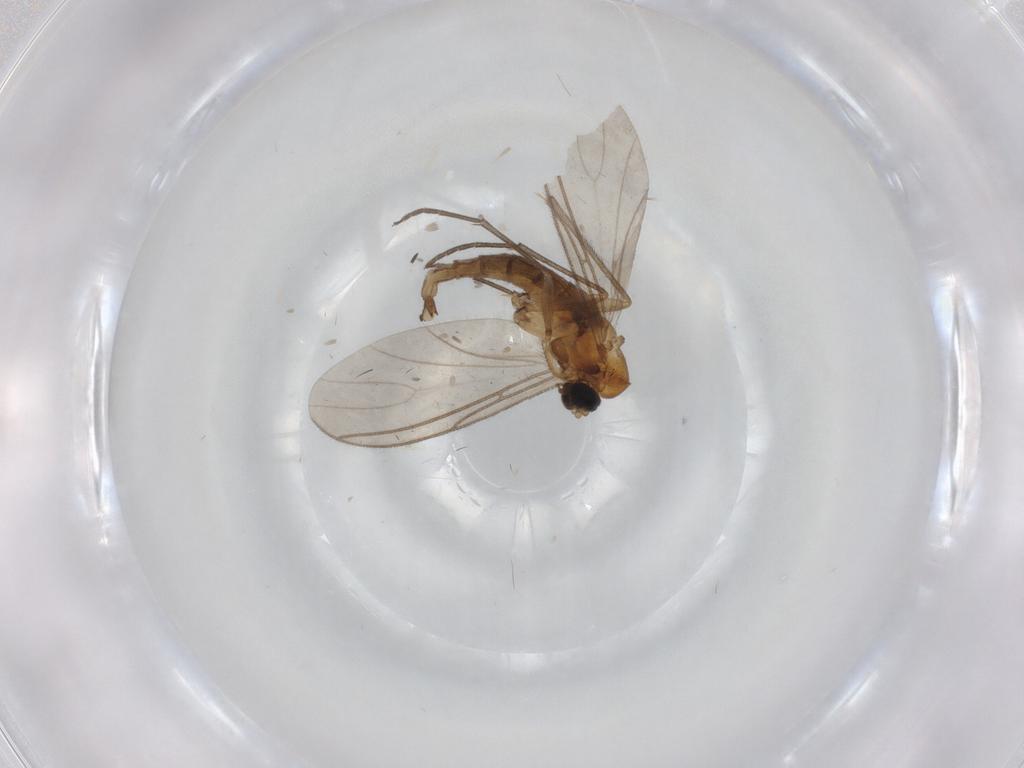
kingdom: Animalia
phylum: Arthropoda
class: Insecta
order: Diptera
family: Sciaridae
